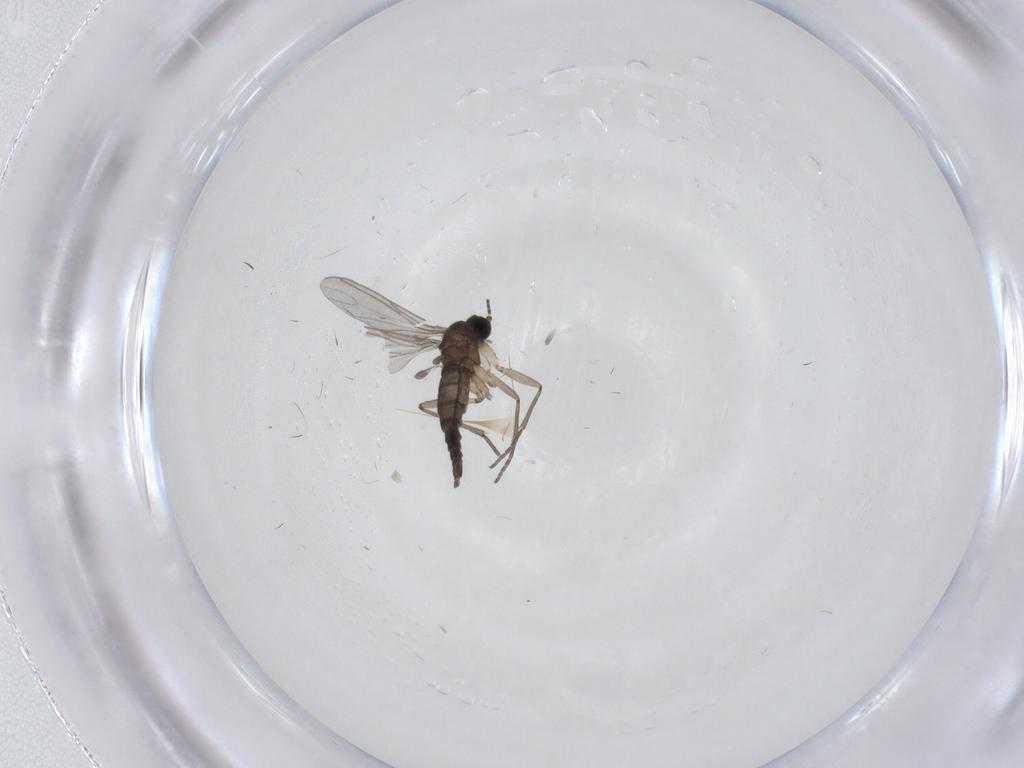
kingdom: Animalia
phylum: Arthropoda
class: Insecta
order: Diptera
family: Sciaridae
